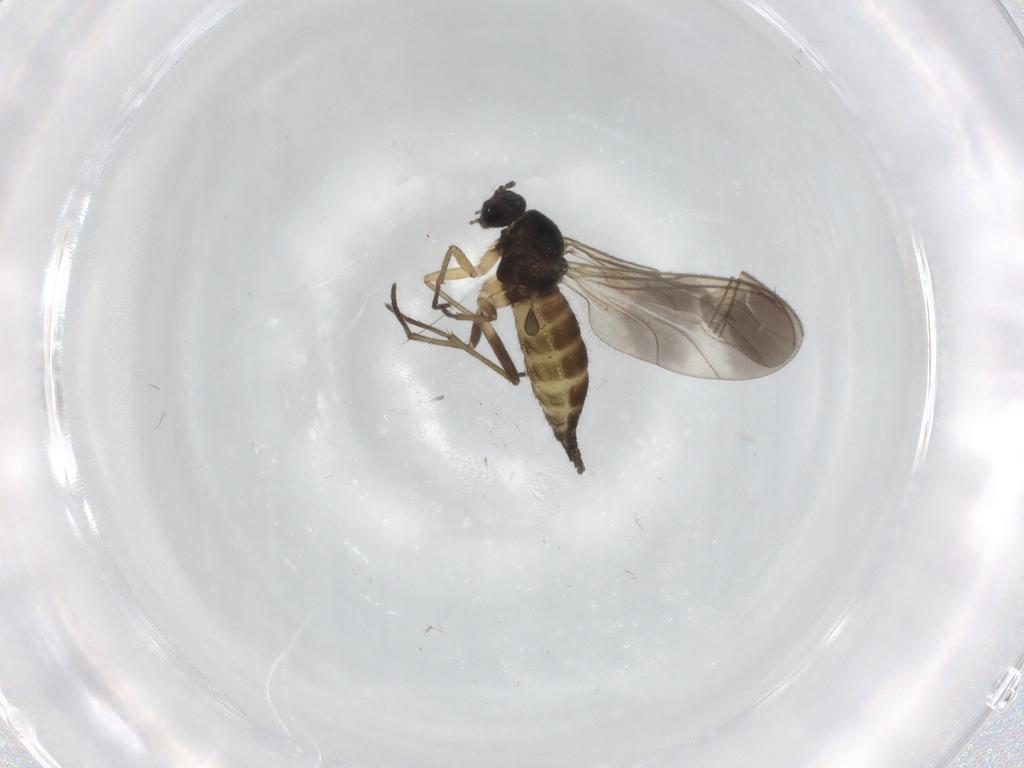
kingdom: Animalia
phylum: Arthropoda
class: Insecta
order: Diptera
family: Sciaridae
